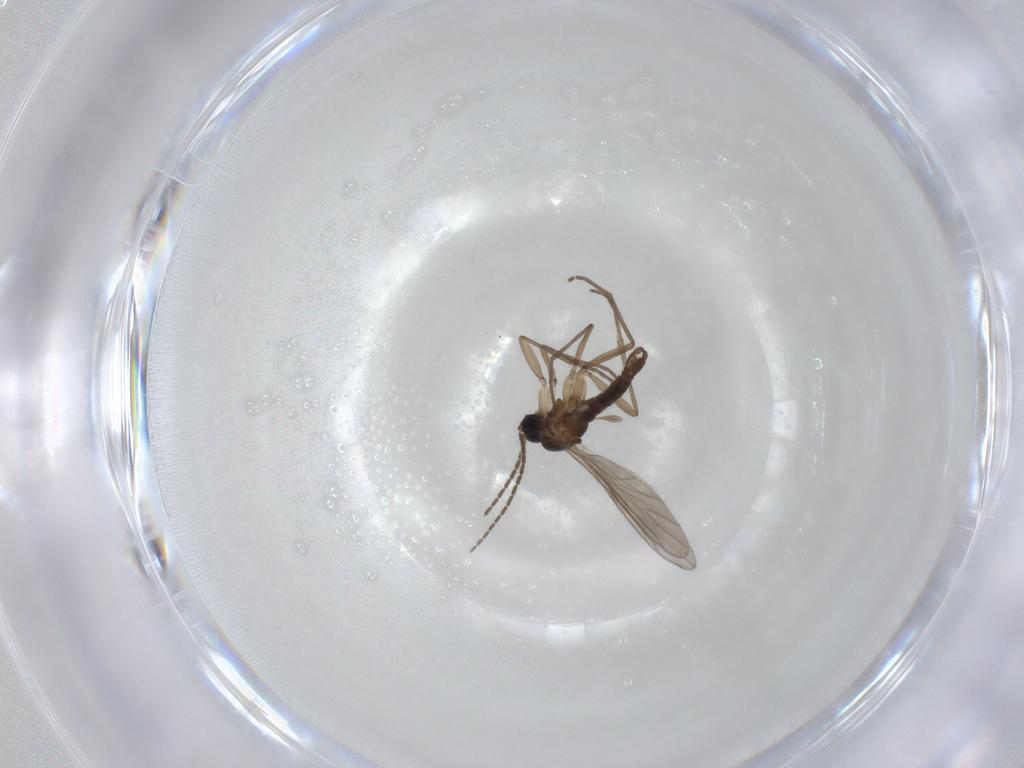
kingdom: Animalia
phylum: Arthropoda
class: Insecta
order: Diptera
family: Sciaridae
